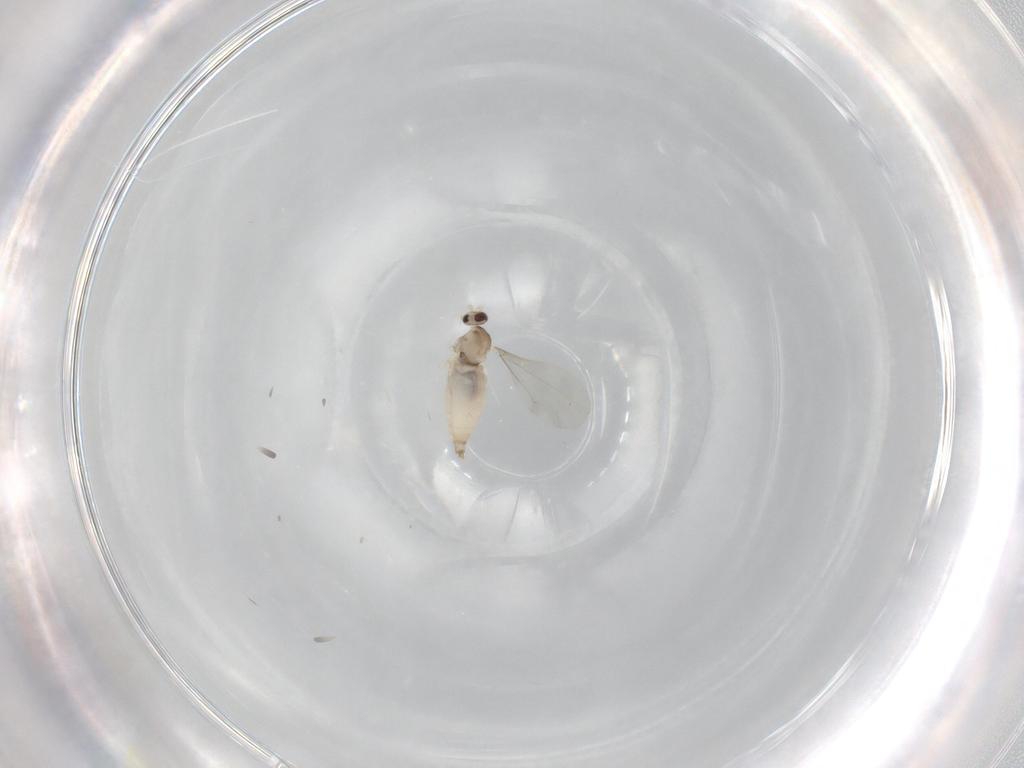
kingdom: Animalia
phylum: Arthropoda
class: Insecta
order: Diptera
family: Cecidomyiidae
